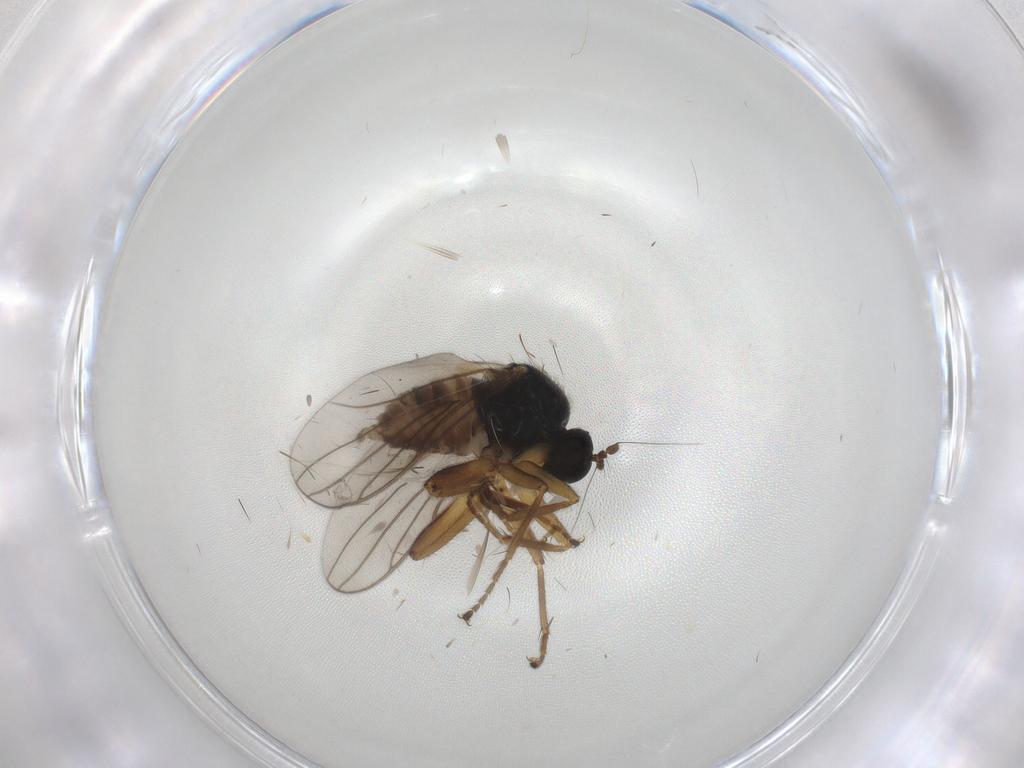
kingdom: Animalia
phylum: Arthropoda
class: Insecta
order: Diptera
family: Hybotidae
